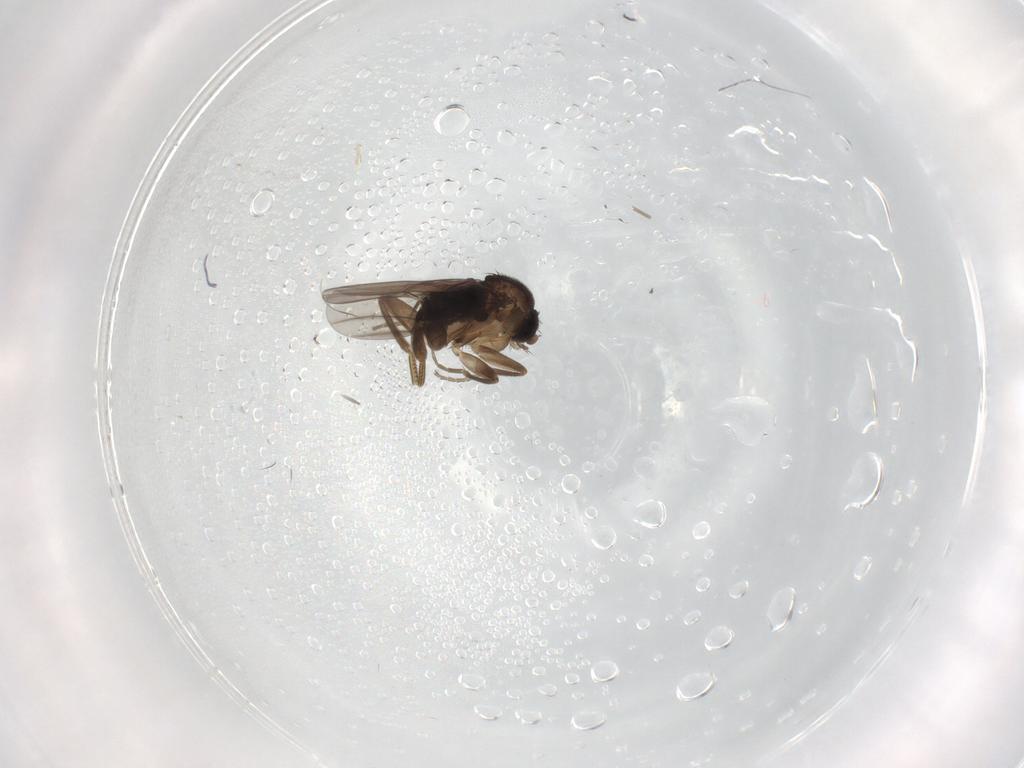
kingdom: Animalia
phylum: Arthropoda
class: Insecta
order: Diptera
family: Phoridae
